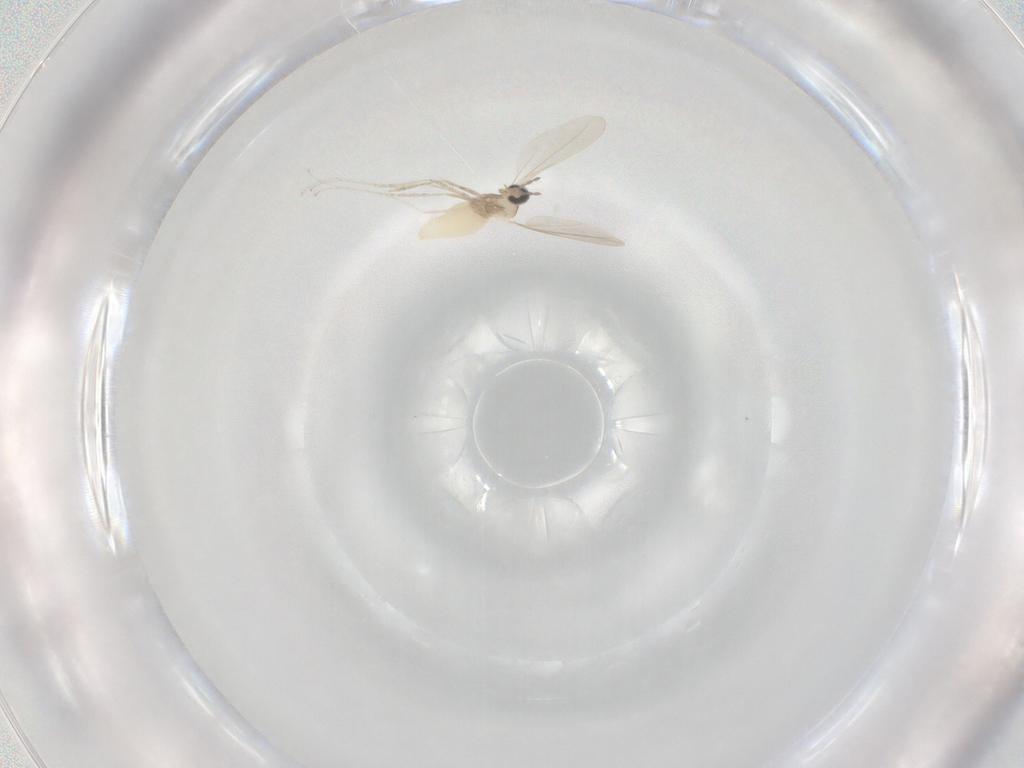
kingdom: Animalia
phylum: Arthropoda
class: Insecta
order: Diptera
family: Cecidomyiidae
